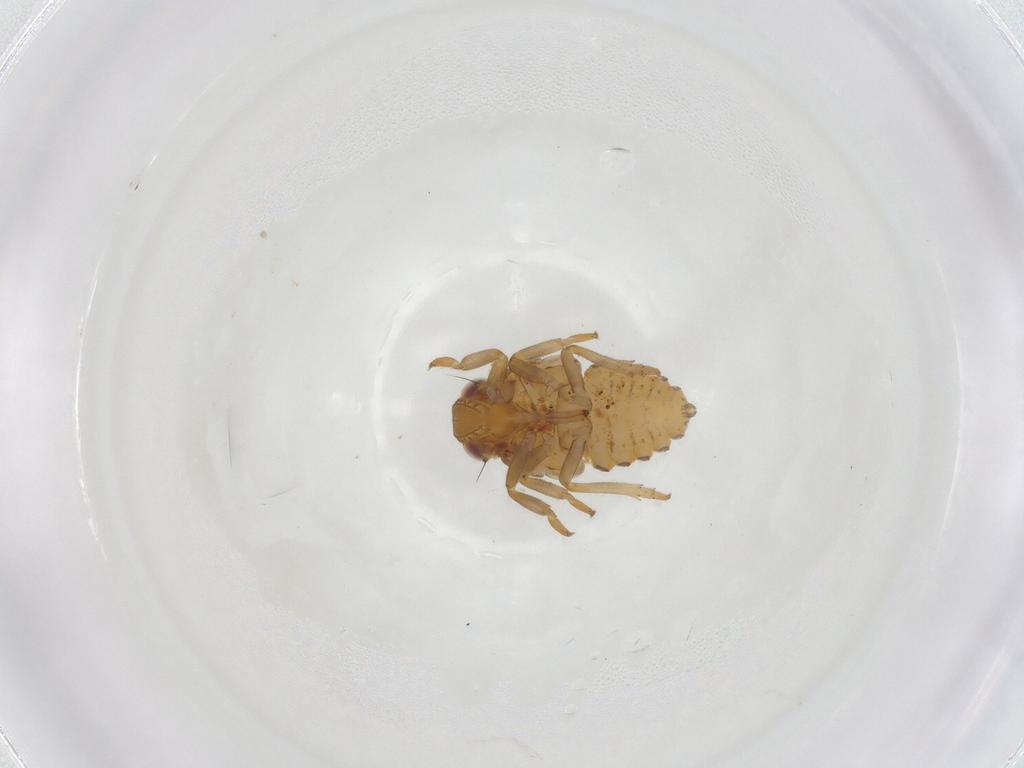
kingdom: Animalia
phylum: Arthropoda
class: Insecta
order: Hemiptera
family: Issidae
